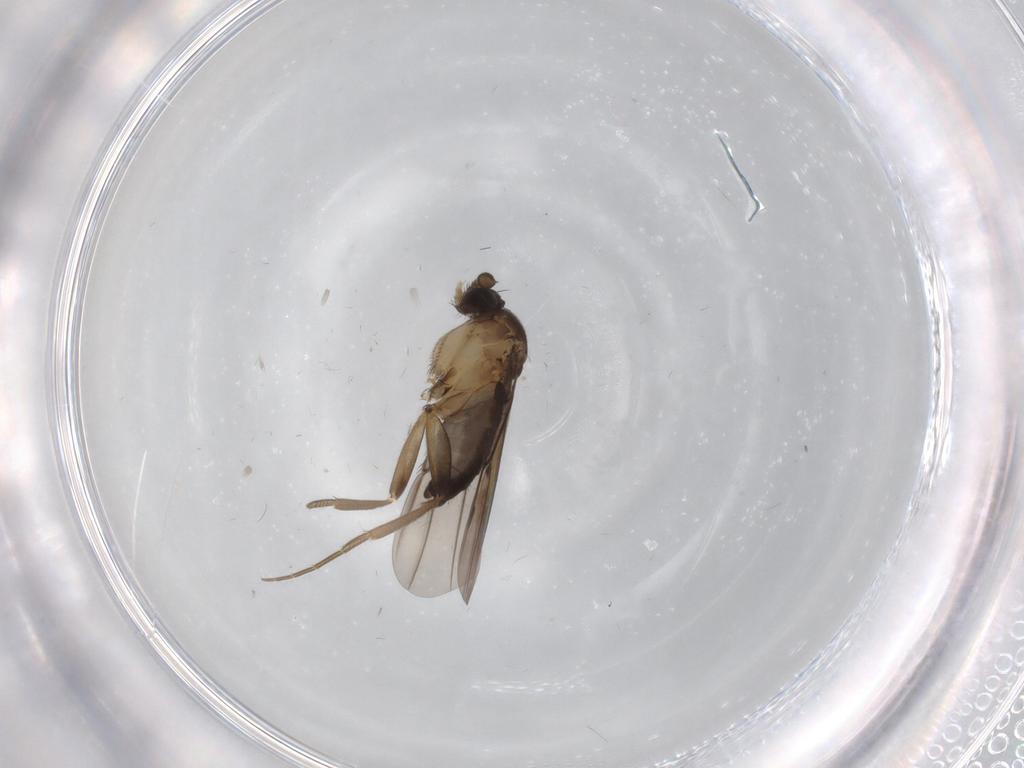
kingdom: Animalia
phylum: Arthropoda
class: Insecta
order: Diptera
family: Chironomidae
